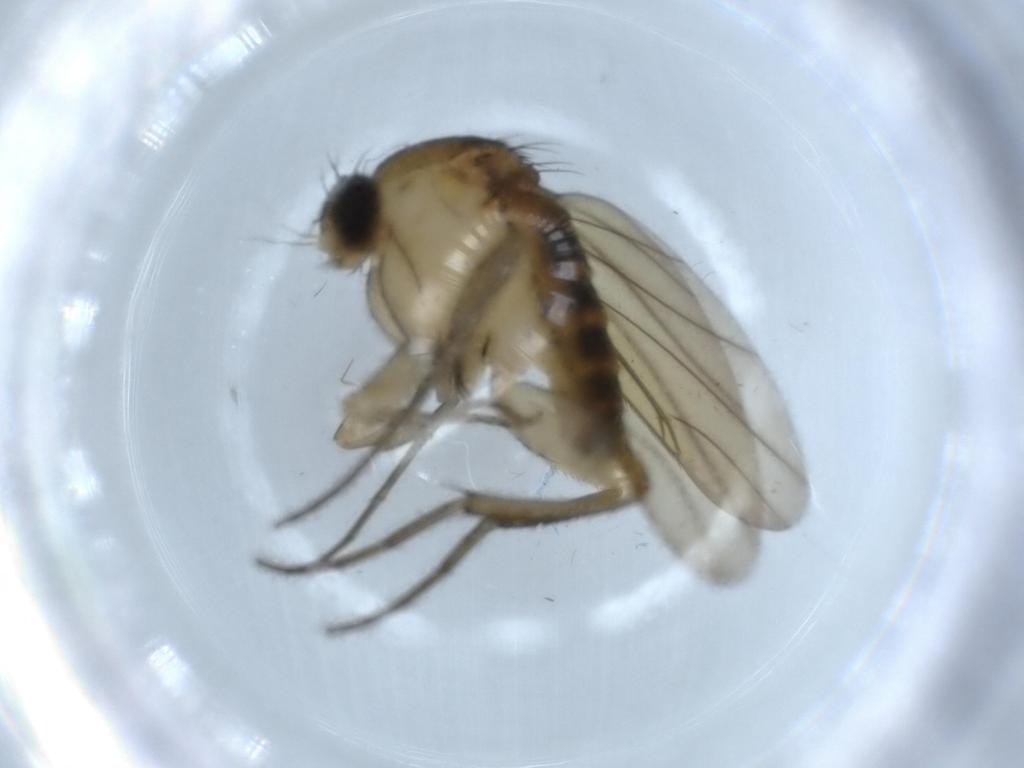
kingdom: Animalia
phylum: Arthropoda
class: Insecta
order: Diptera
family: Phoridae
